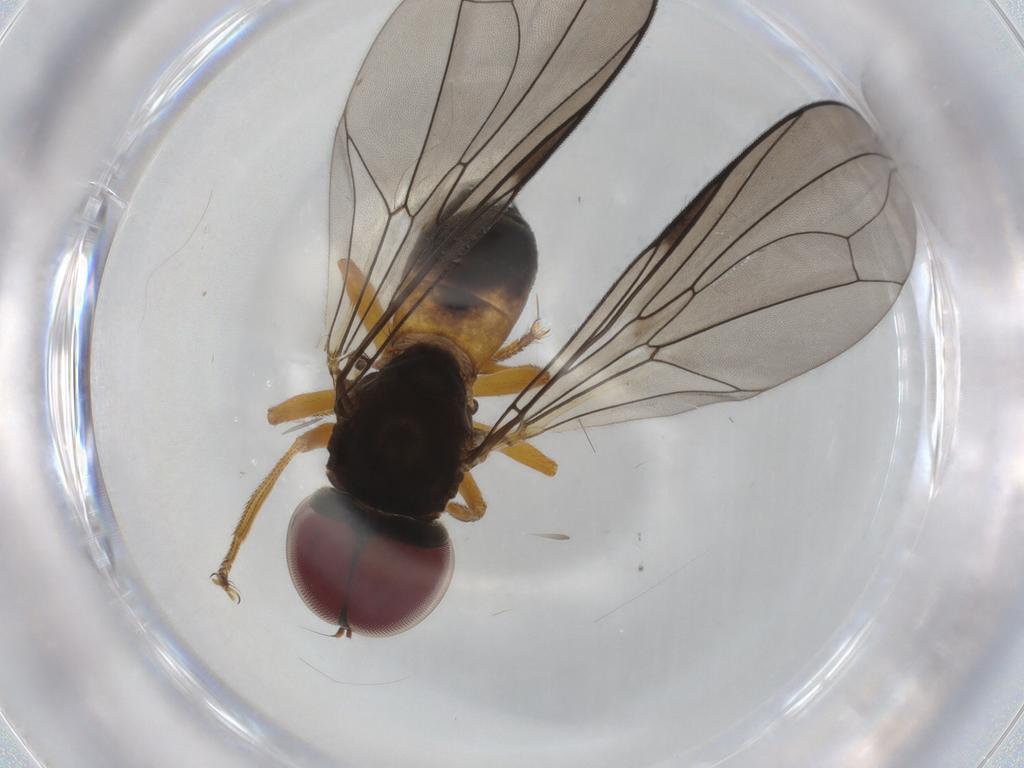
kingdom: Animalia
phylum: Arthropoda
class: Insecta
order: Diptera
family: Pipunculidae
